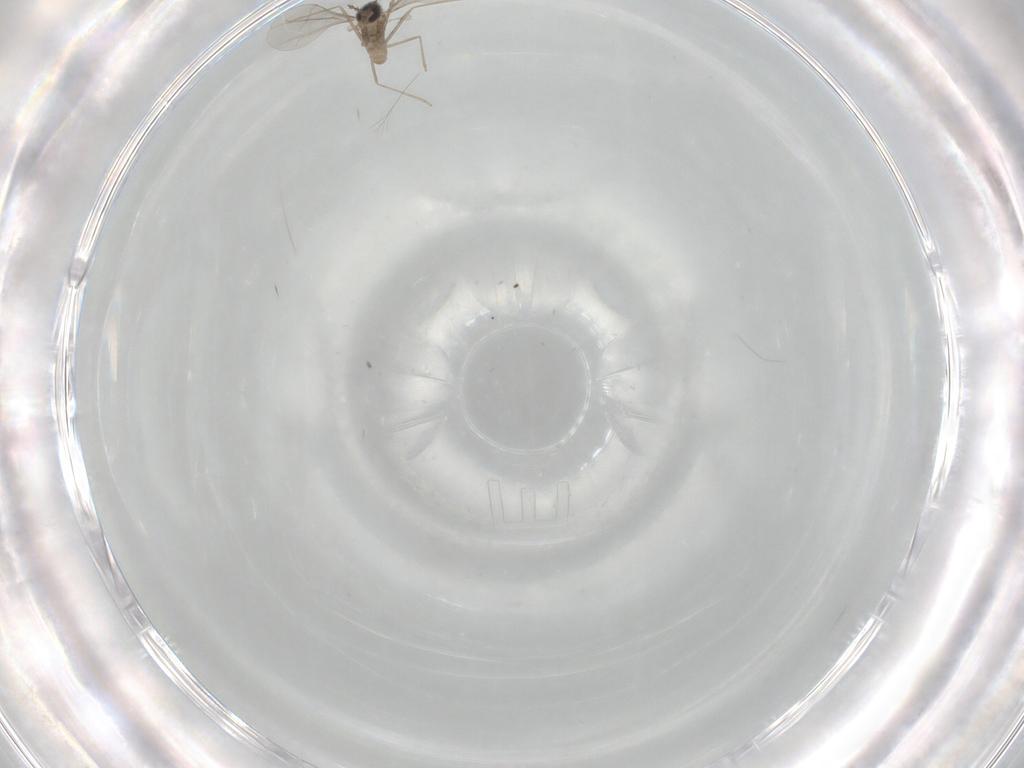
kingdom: Animalia
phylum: Arthropoda
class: Insecta
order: Diptera
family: Cecidomyiidae
